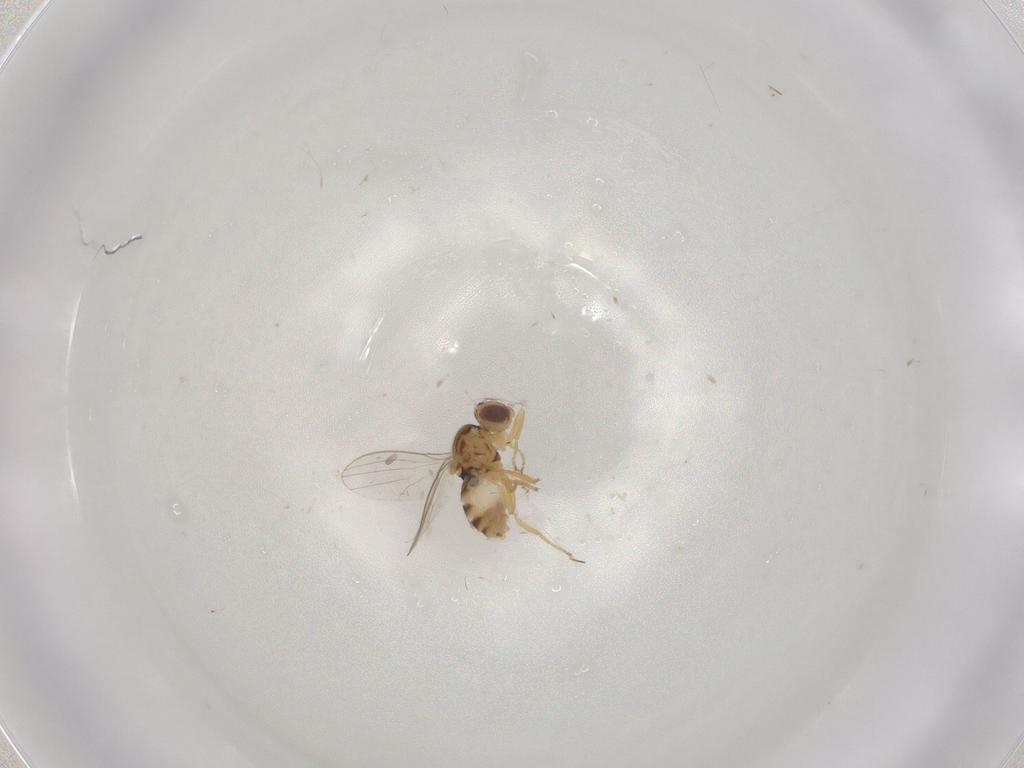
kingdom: Animalia
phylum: Arthropoda
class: Insecta
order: Diptera
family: Chyromyidae
